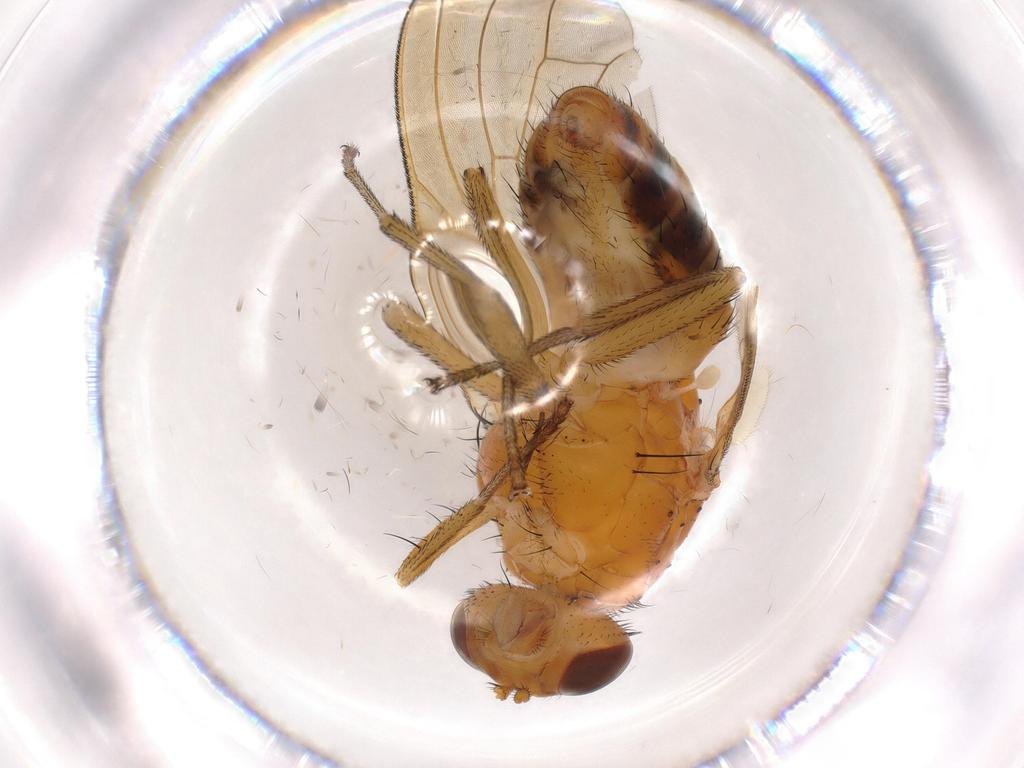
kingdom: Animalia
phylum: Arthropoda
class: Insecta
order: Diptera
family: Mycetophilidae
